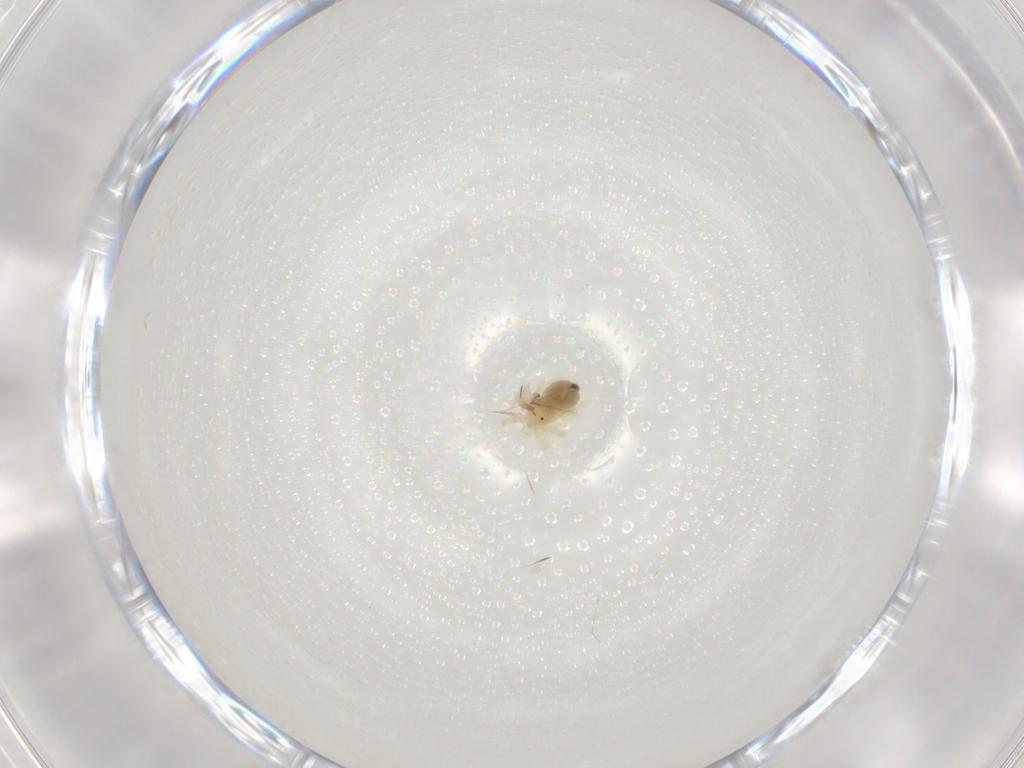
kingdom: Animalia
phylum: Arthropoda
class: Arachnida
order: Trombidiformes
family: Anystidae
